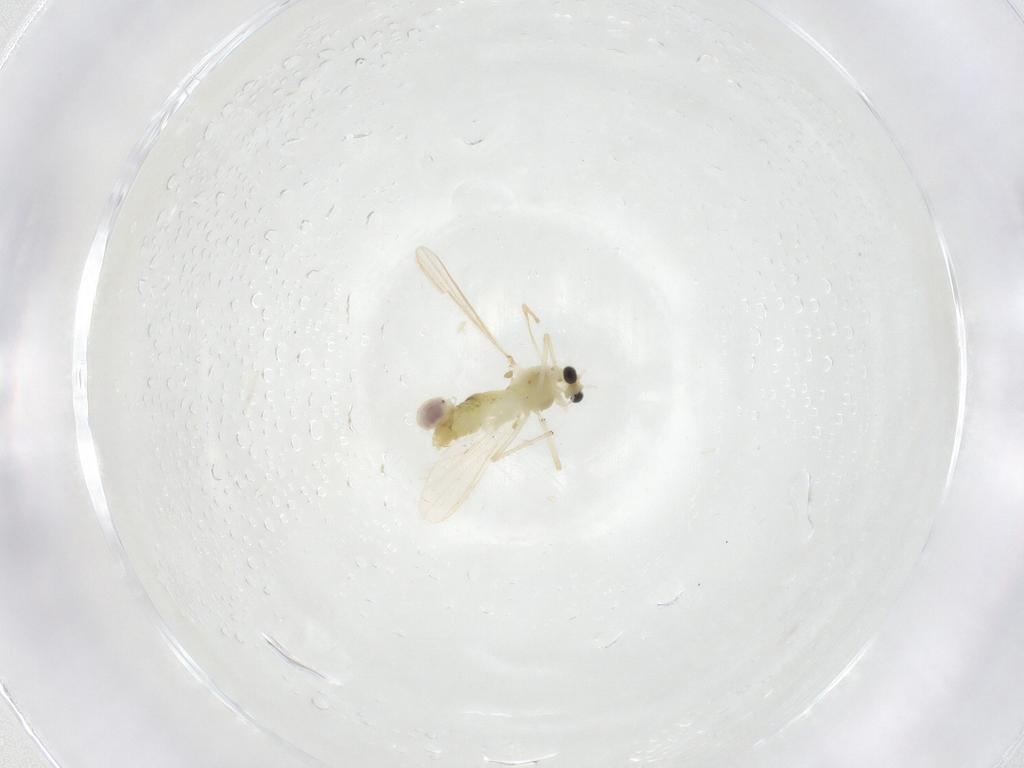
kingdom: Animalia
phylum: Arthropoda
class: Insecta
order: Diptera
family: Chironomidae
